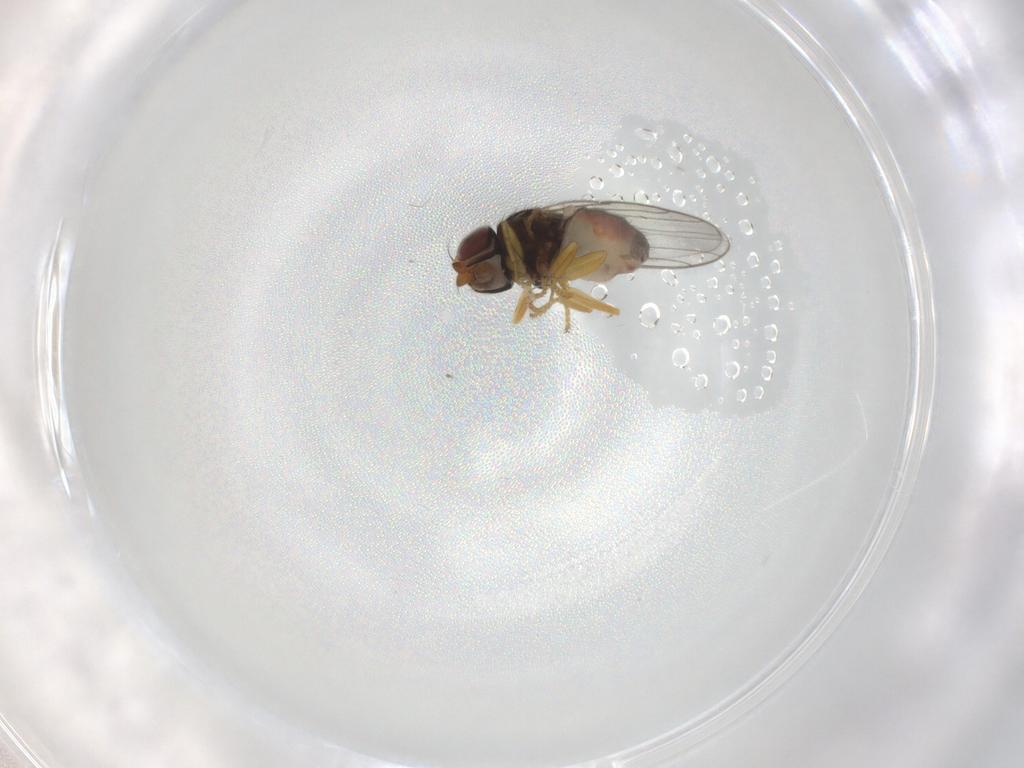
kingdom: Animalia
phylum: Arthropoda
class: Insecta
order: Diptera
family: Chloropidae
